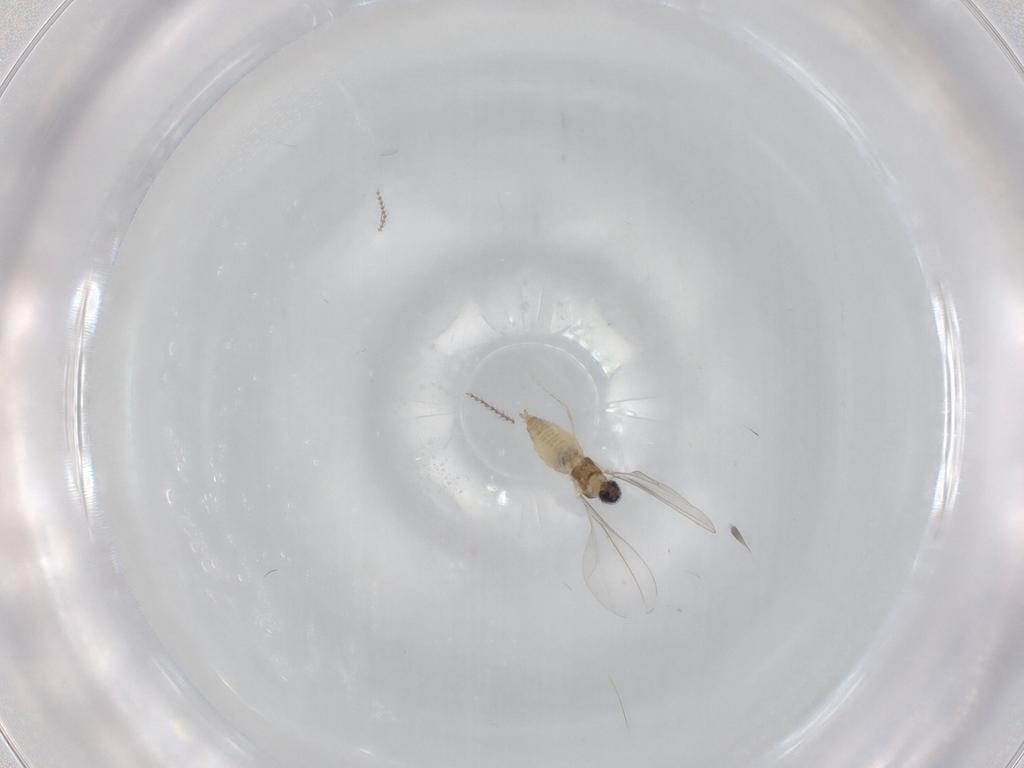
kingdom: Animalia
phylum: Arthropoda
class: Insecta
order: Diptera
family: Cecidomyiidae
